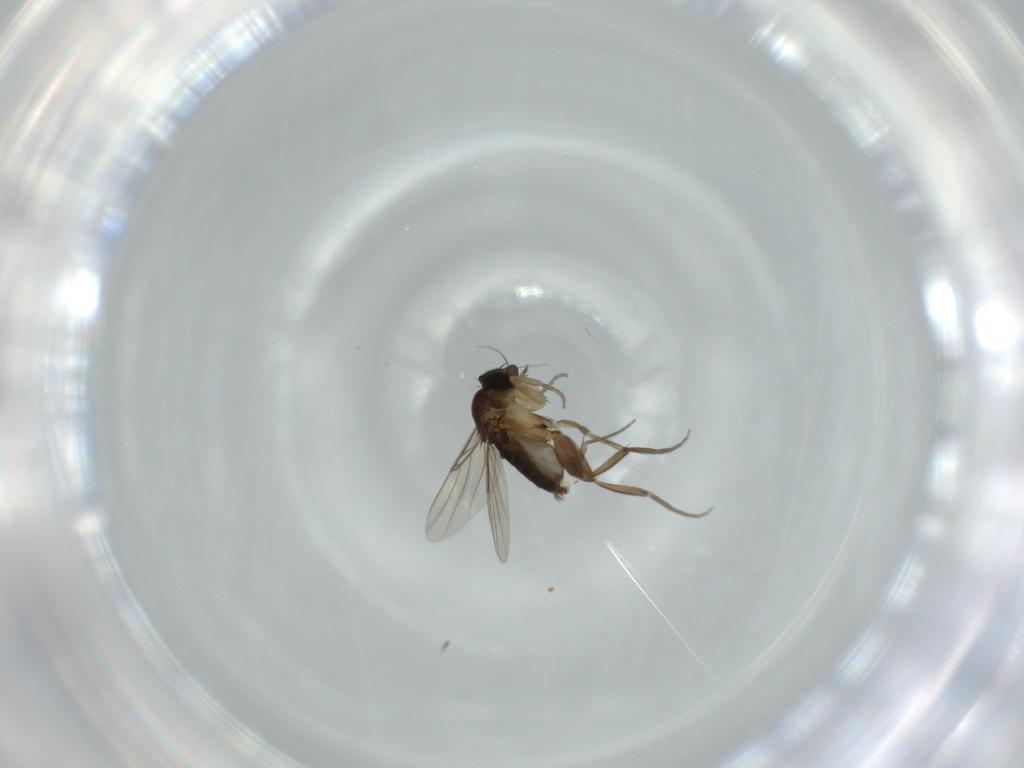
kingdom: Animalia
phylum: Arthropoda
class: Insecta
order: Diptera
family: Phoridae
